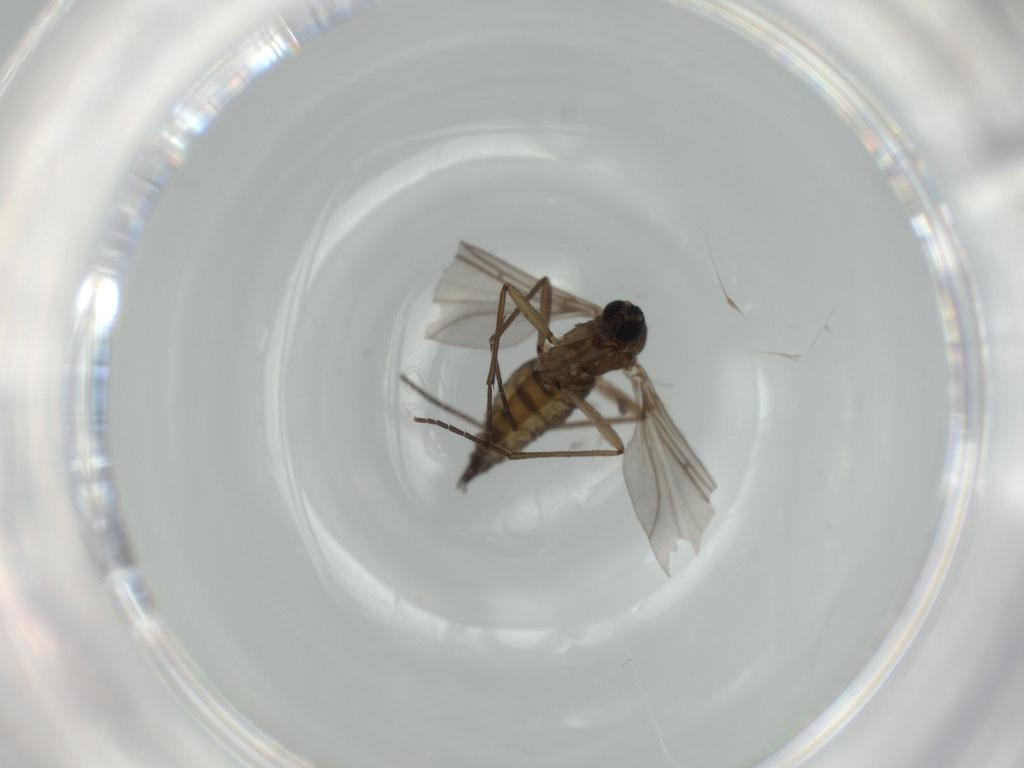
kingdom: Animalia
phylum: Arthropoda
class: Insecta
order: Diptera
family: Sciaridae
